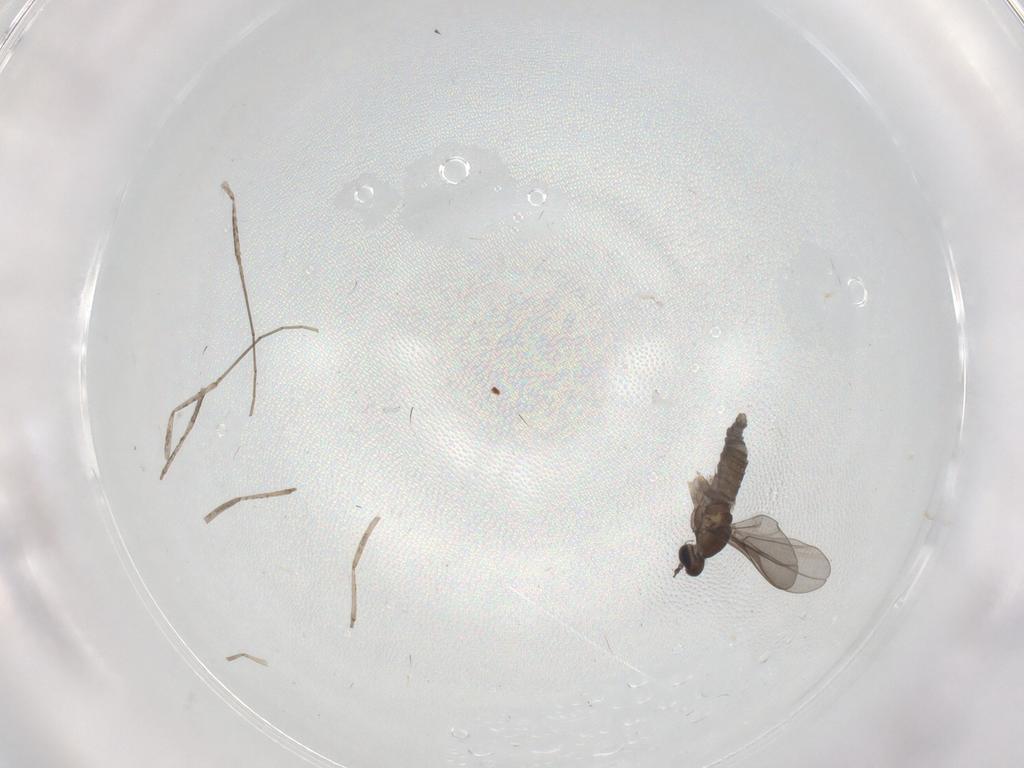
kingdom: Animalia
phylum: Arthropoda
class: Insecta
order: Diptera
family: Cecidomyiidae
